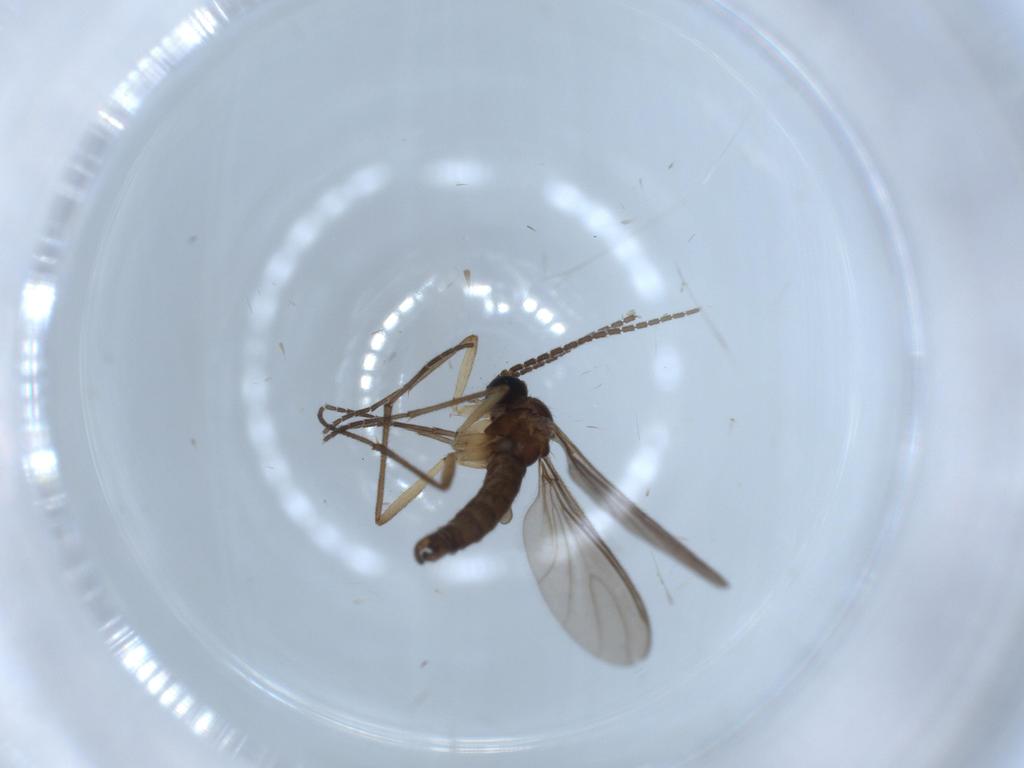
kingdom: Animalia
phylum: Arthropoda
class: Insecta
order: Diptera
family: Sciaridae
